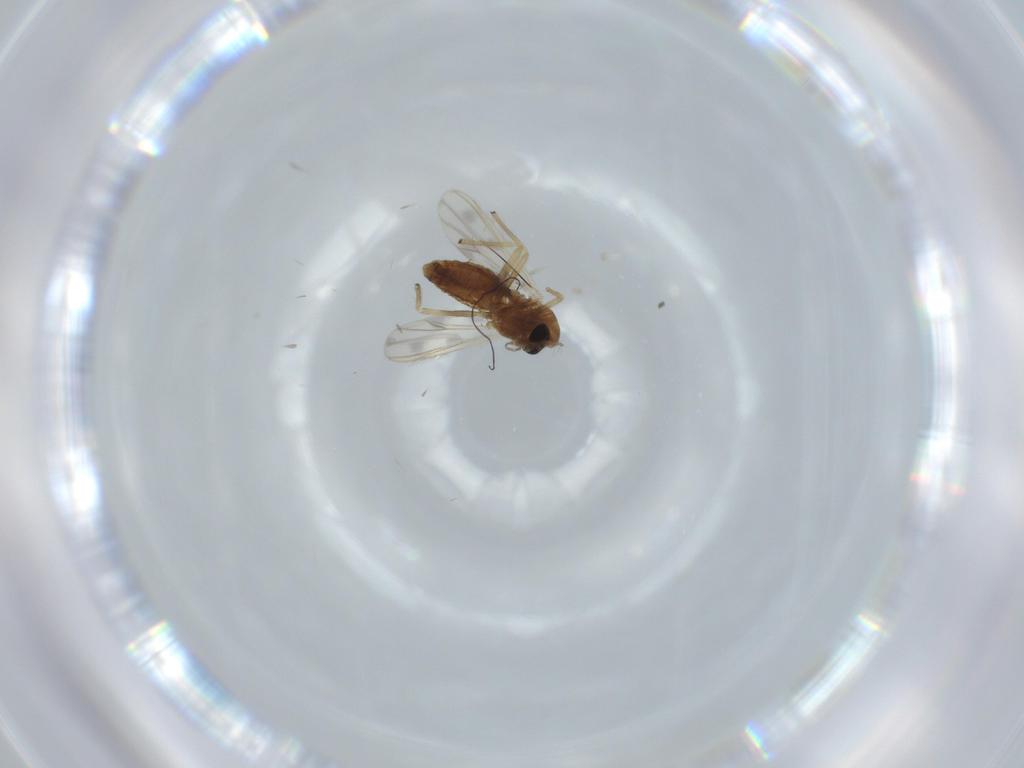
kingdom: Animalia
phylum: Arthropoda
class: Insecta
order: Diptera
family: Chironomidae
